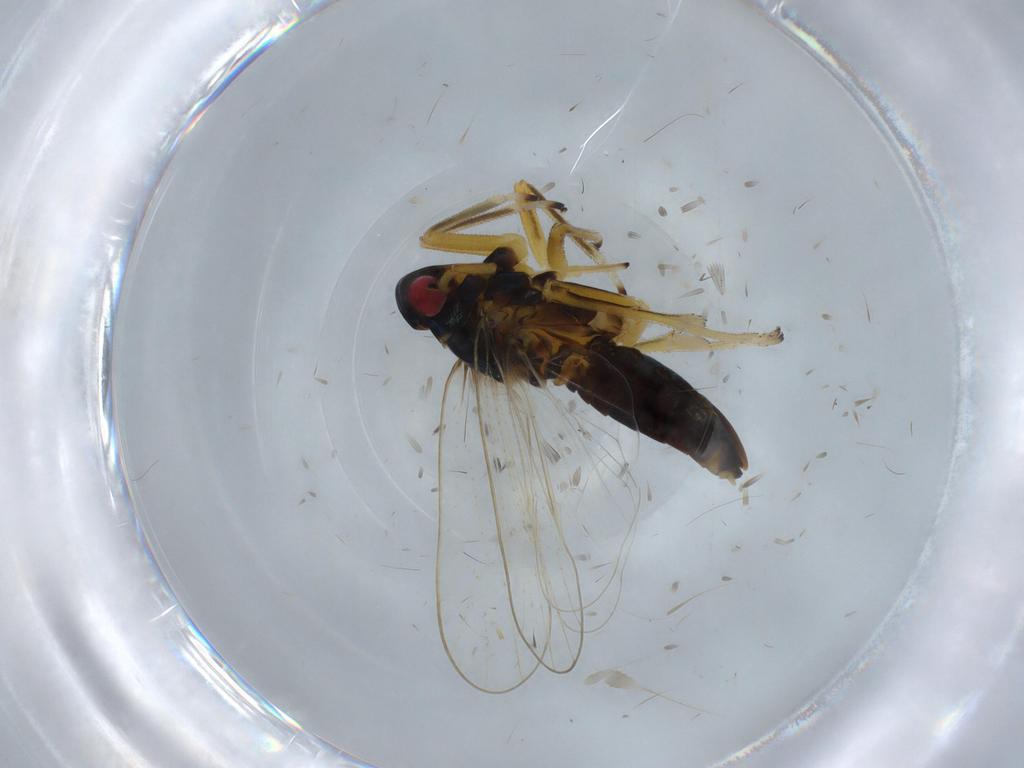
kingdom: Animalia
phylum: Arthropoda
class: Insecta
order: Hemiptera
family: Delphacidae
